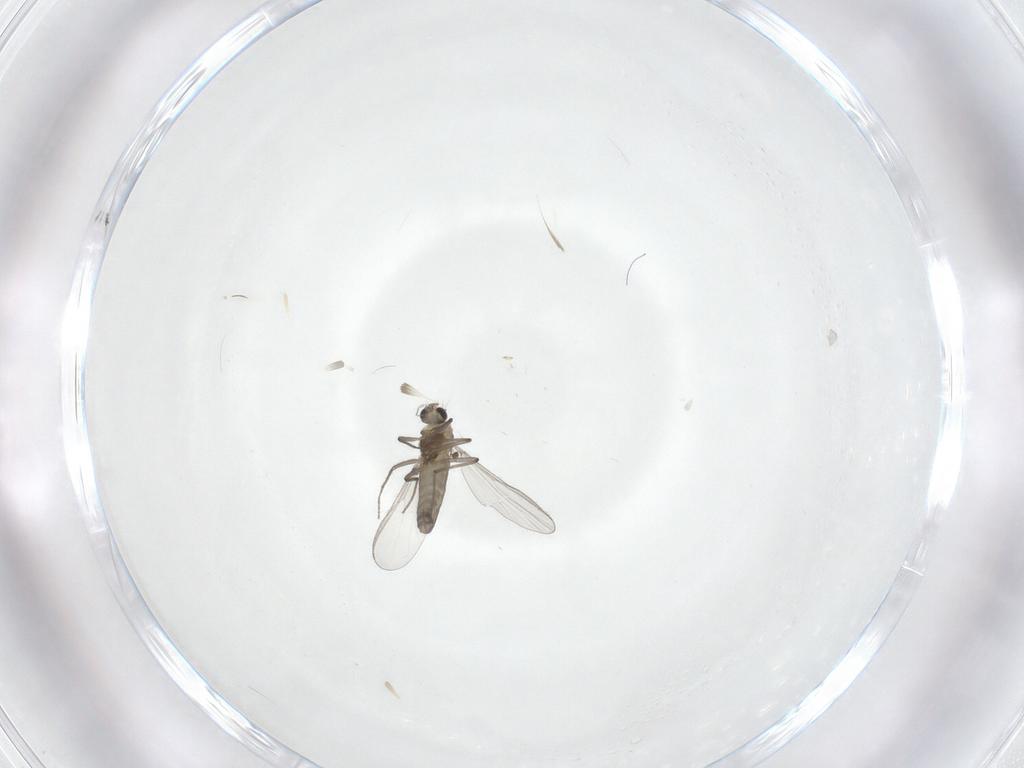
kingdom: Animalia
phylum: Arthropoda
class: Insecta
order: Diptera
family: Chironomidae
